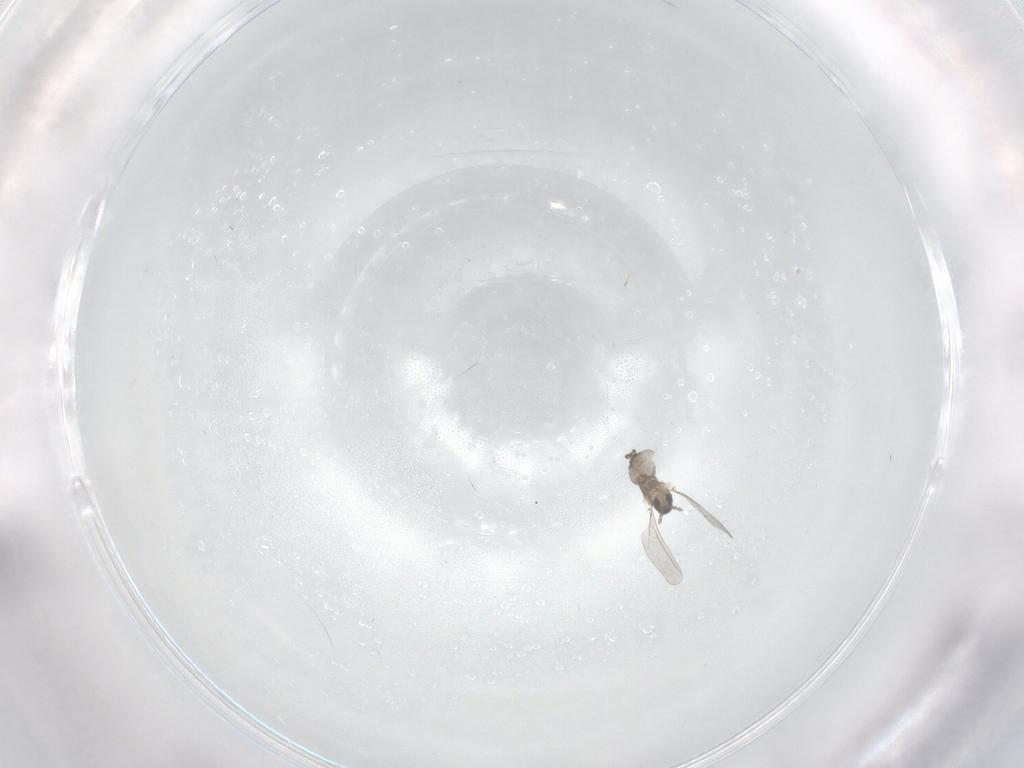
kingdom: Animalia
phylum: Arthropoda
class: Insecta
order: Diptera
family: Cecidomyiidae
